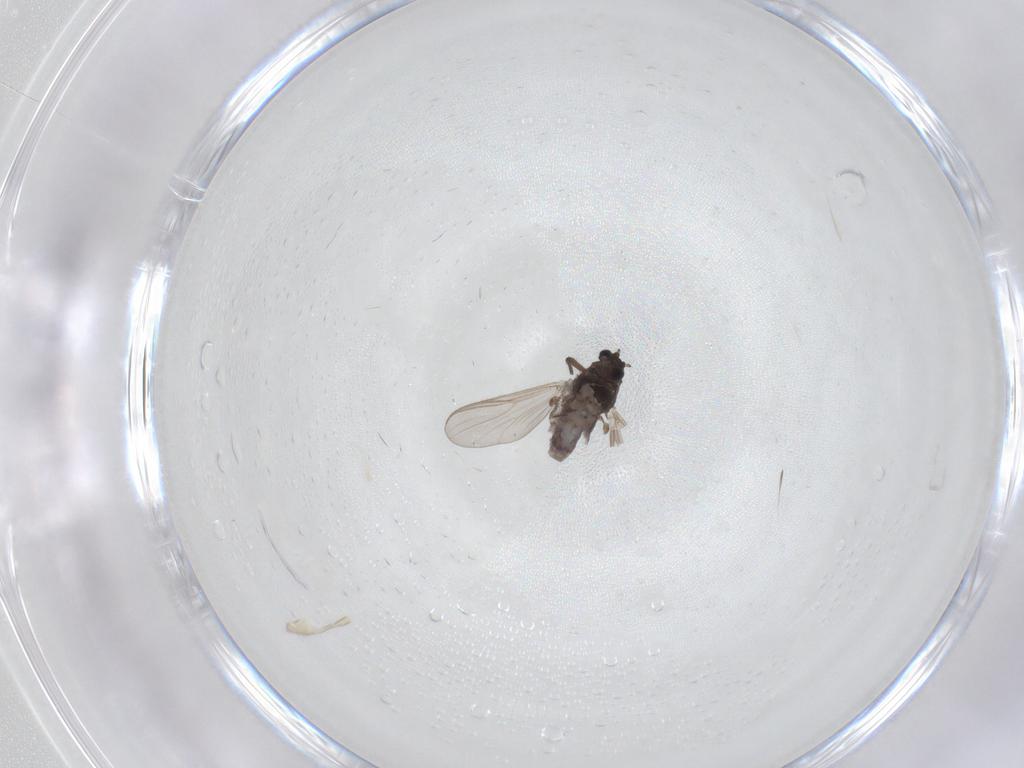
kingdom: Animalia
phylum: Arthropoda
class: Insecta
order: Diptera
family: Chironomidae
